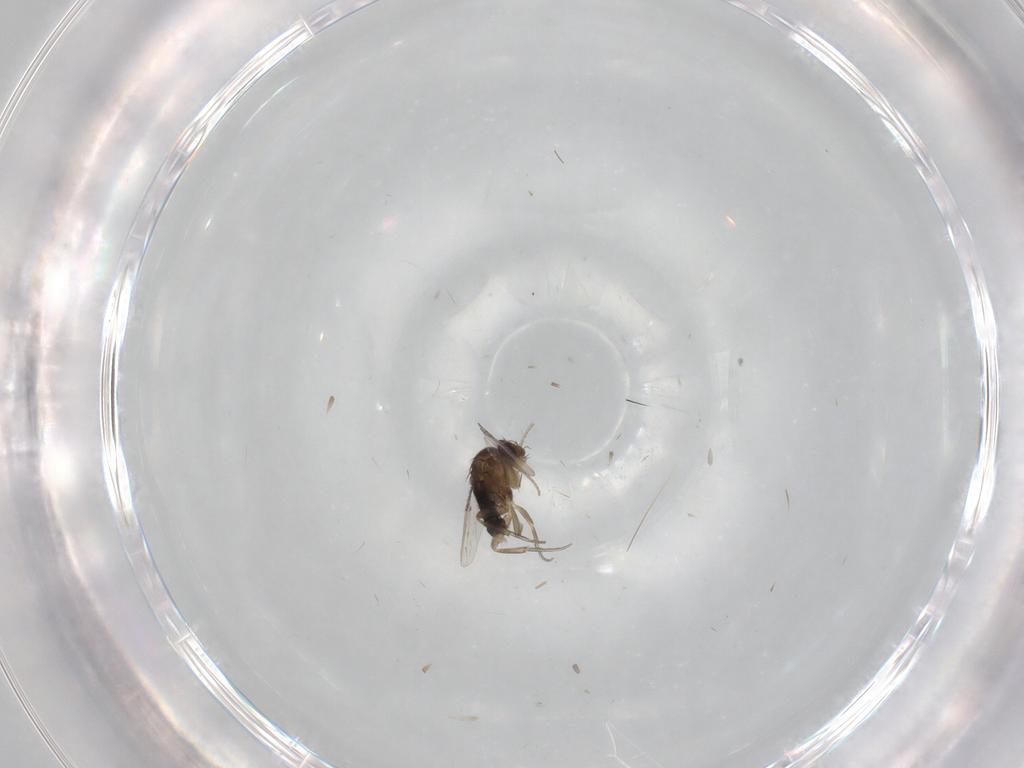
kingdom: Animalia
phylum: Arthropoda
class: Insecta
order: Diptera
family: Phoridae
